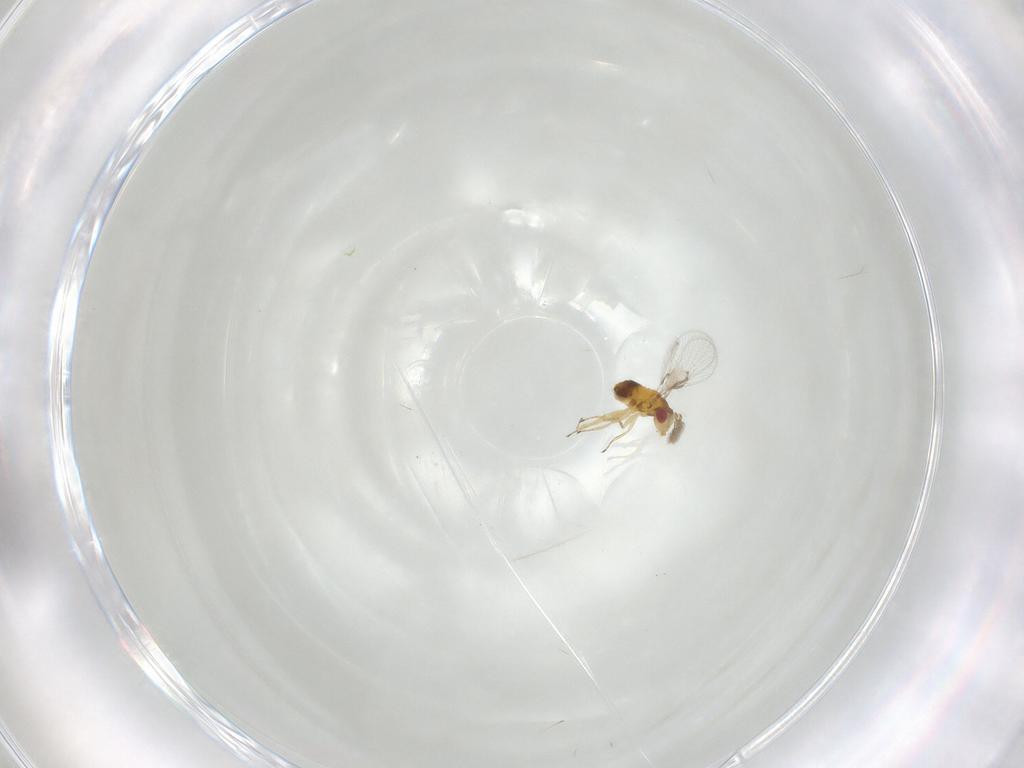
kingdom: Animalia
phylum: Arthropoda
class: Insecta
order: Hymenoptera
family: Trichogrammatidae
